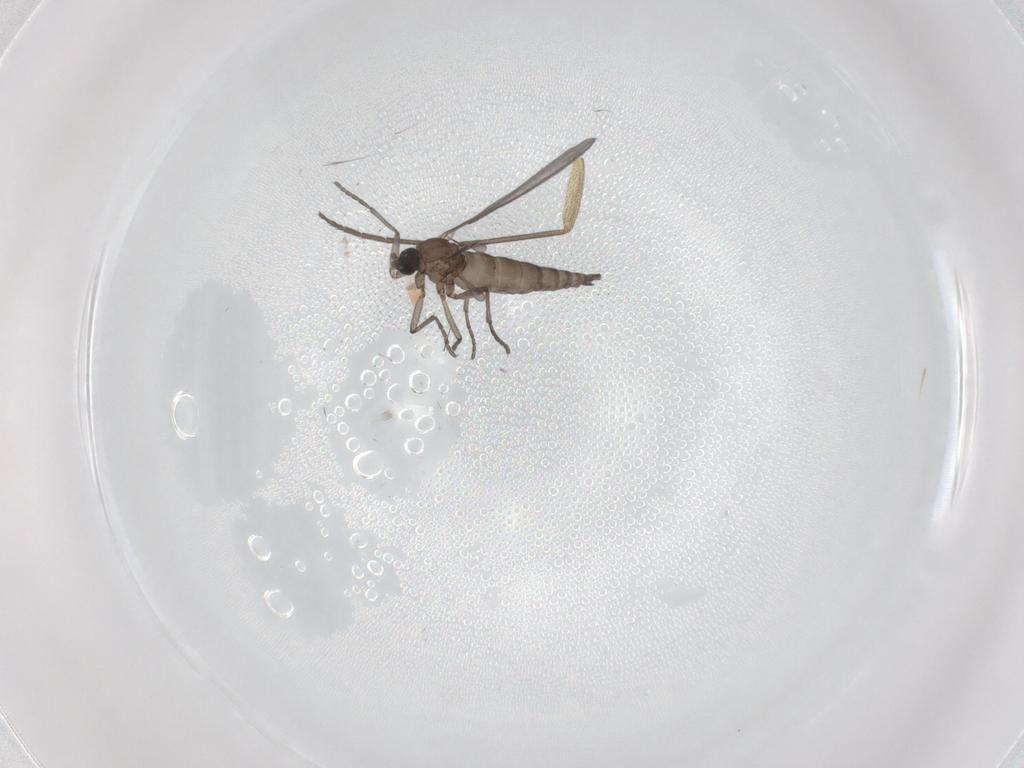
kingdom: Animalia
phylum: Arthropoda
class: Insecta
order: Diptera
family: Sciaridae
